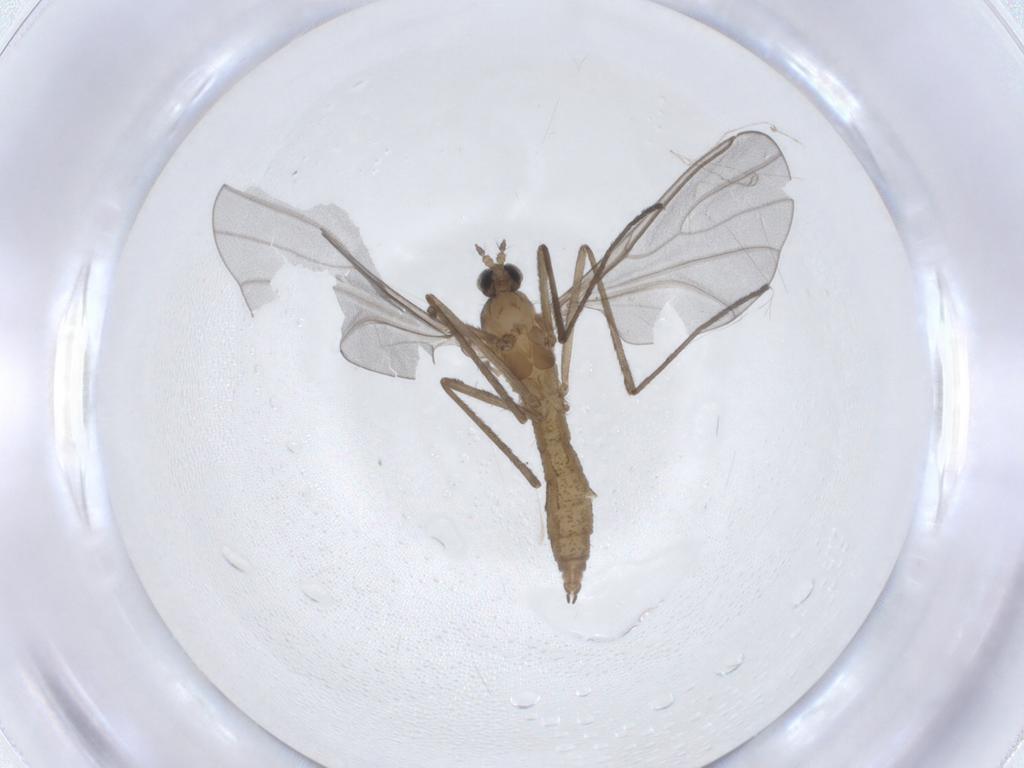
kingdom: Animalia
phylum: Arthropoda
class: Insecta
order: Diptera
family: Cecidomyiidae
